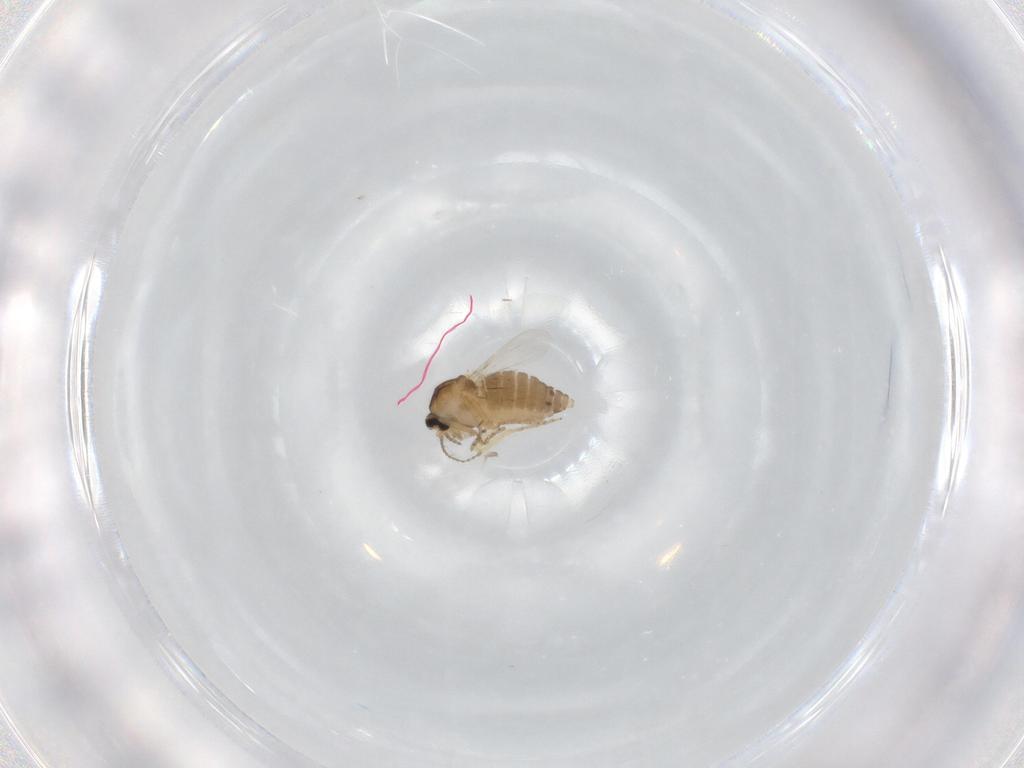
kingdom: Animalia
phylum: Arthropoda
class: Insecta
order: Diptera
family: Ceratopogonidae
